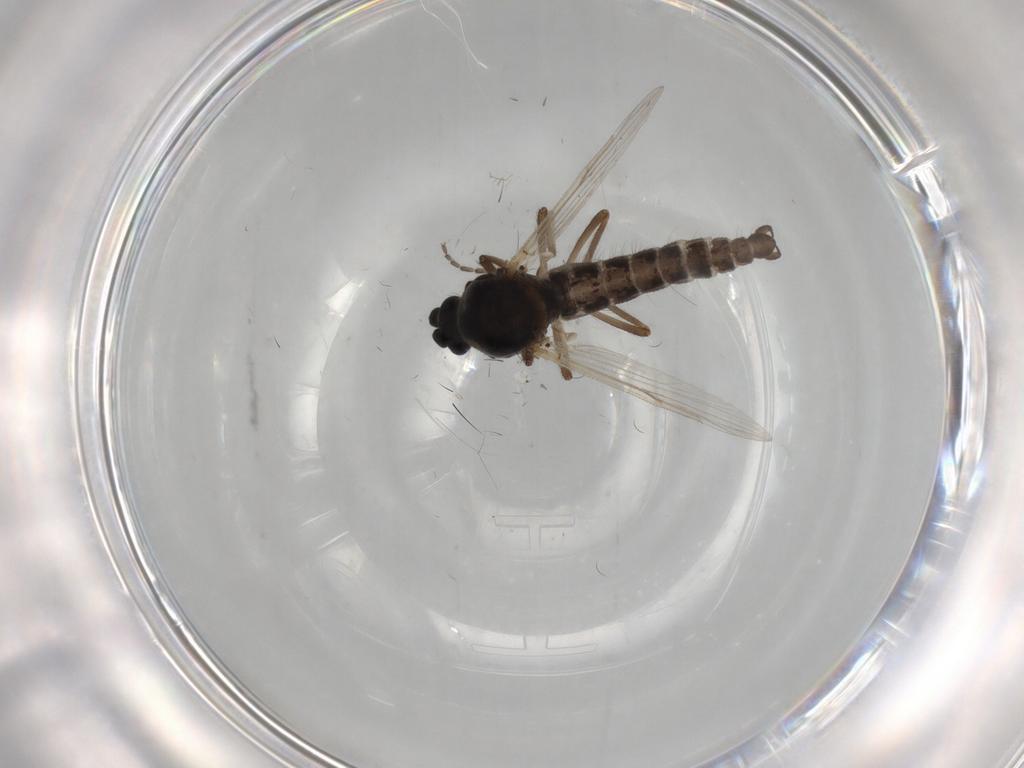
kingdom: Animalia
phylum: Arthropoda
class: Insecta
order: Diptera
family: Ceratopogonidae
